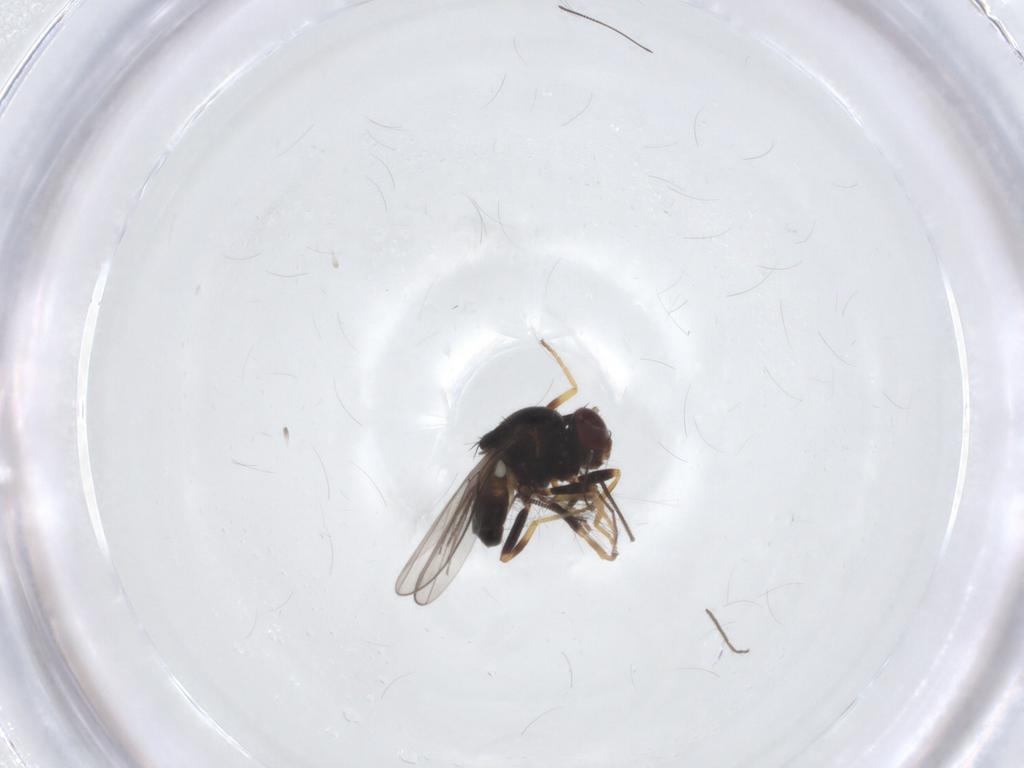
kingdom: Animalia
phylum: Arthropoda
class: Insecta
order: Diptera
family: Chloropidae
